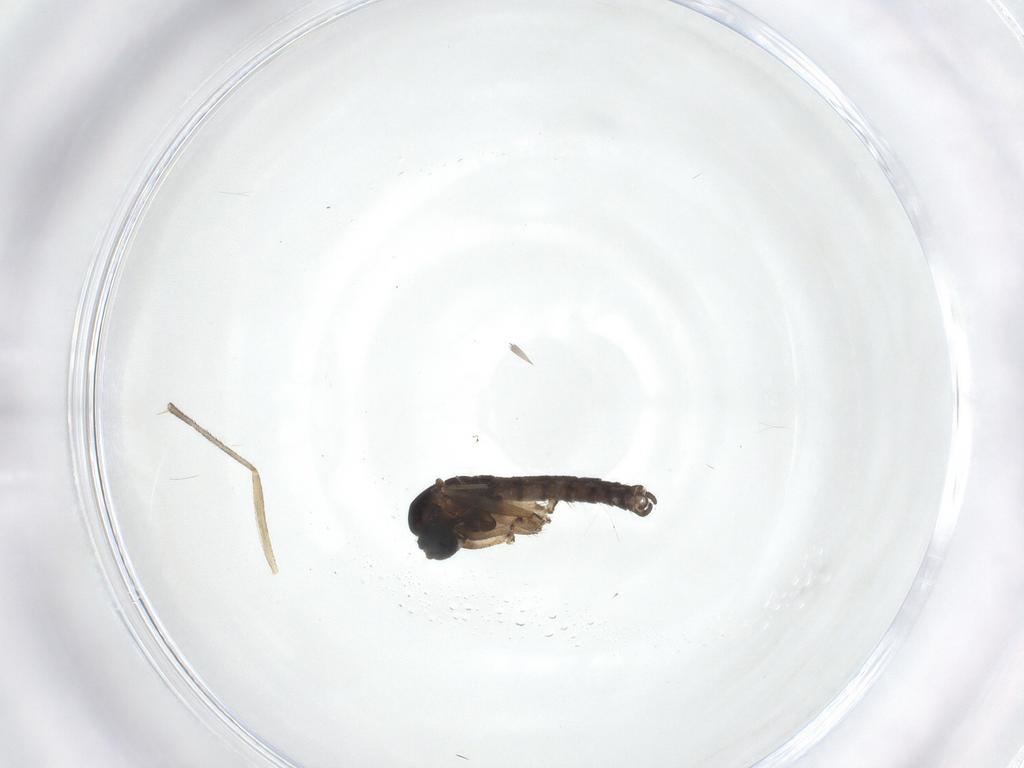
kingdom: Animalia
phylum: Arthropoda
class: Insecta
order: Diptera
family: Sciaridae
